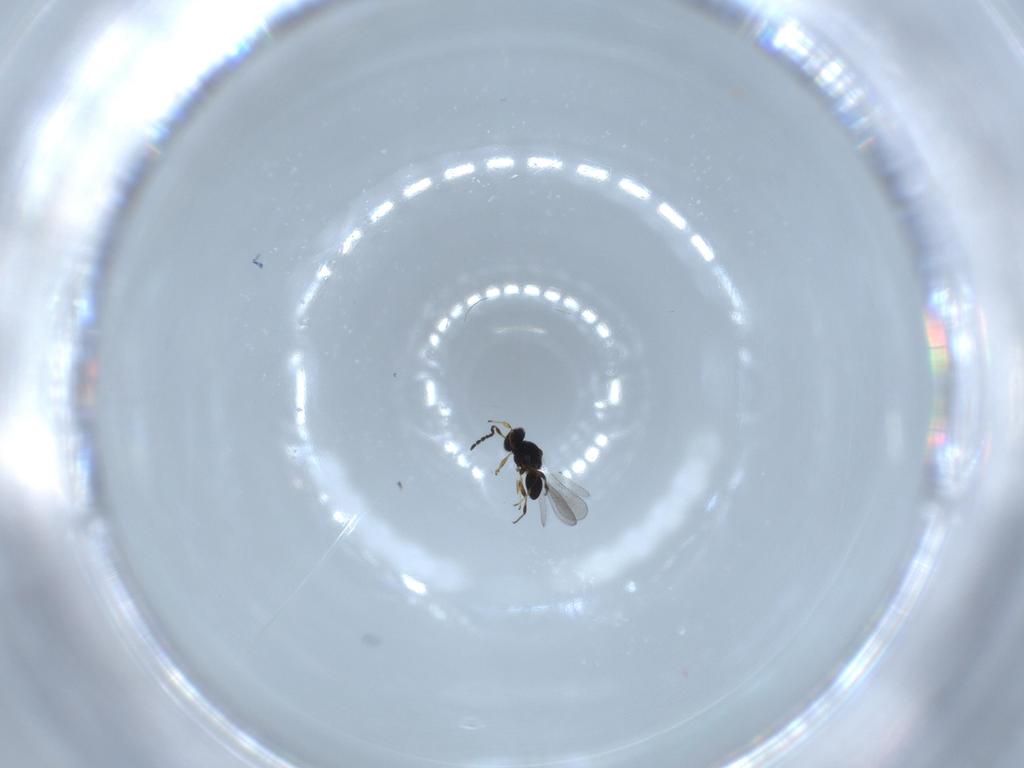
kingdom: Animalia
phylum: Arthropoda
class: Insecta
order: Hymenoptera
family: Platygastridae
